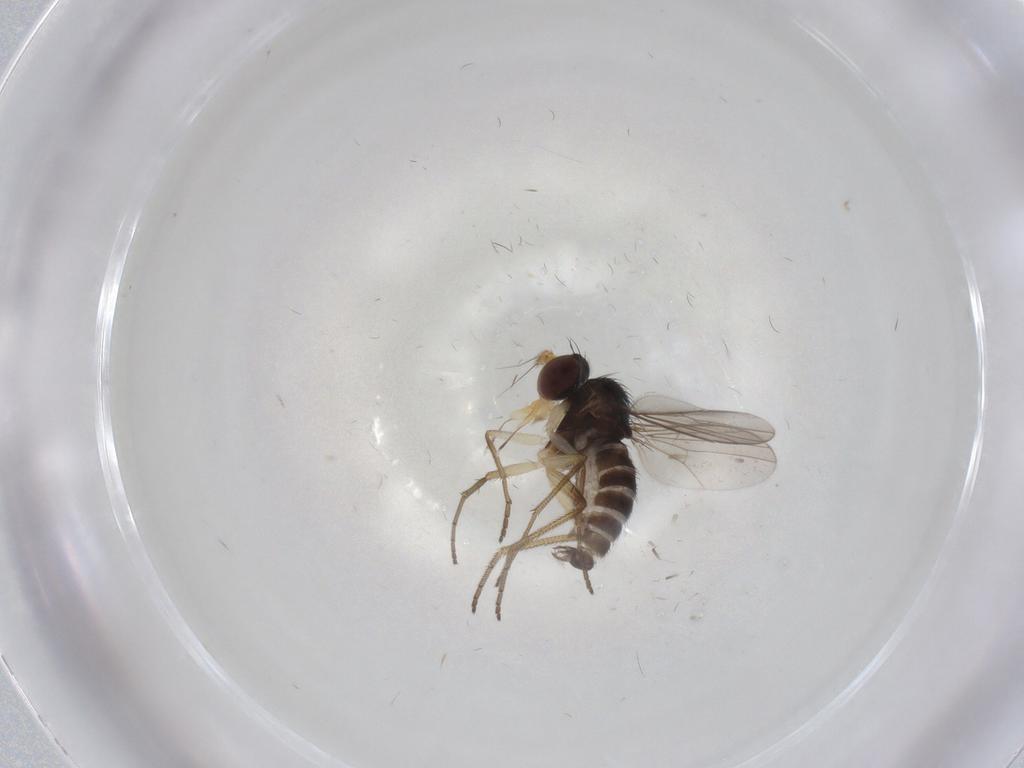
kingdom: Animalia
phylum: Arthropoda
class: Insecta
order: Diptera
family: Dolichopodidae
